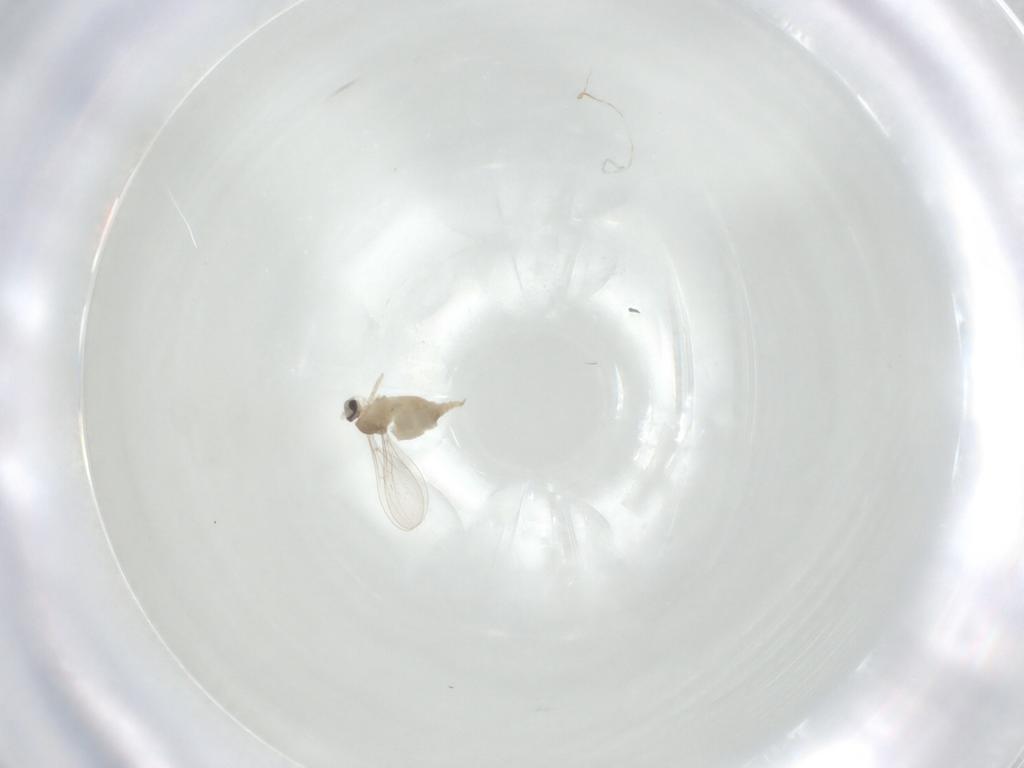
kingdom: Animalia
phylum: Arthropoda
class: Insecta
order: Diptera
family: Cecidomyiidae
